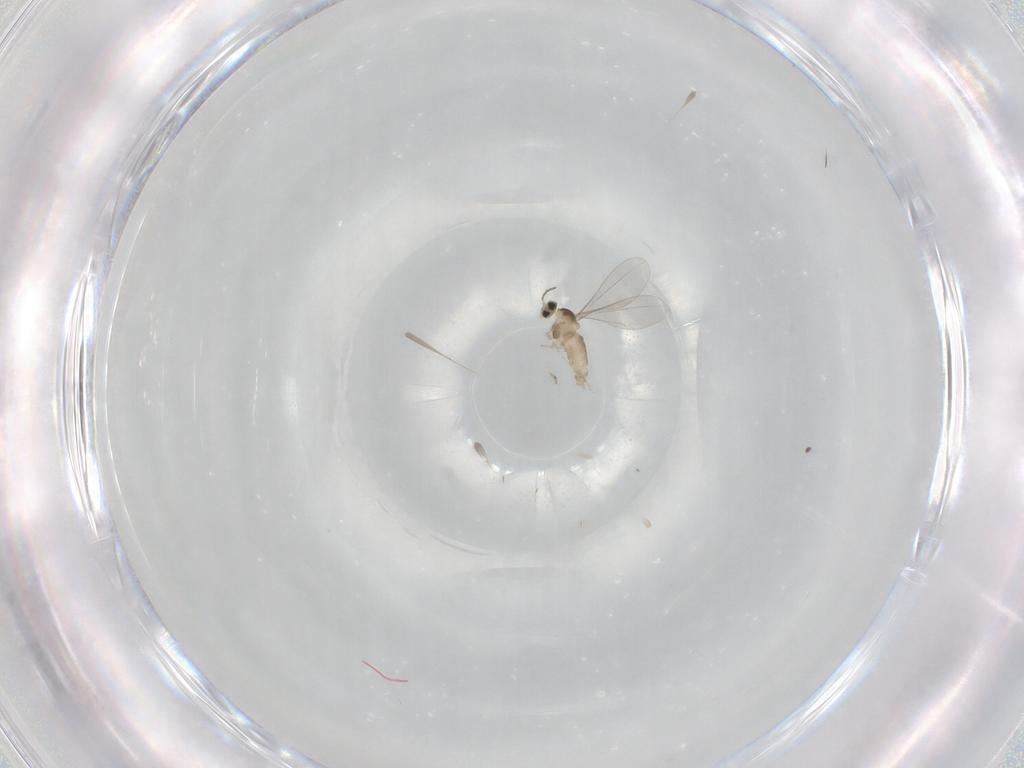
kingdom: Animalia
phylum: Arthropoda
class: Insecta
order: Diptera
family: Cecidomyiidae
